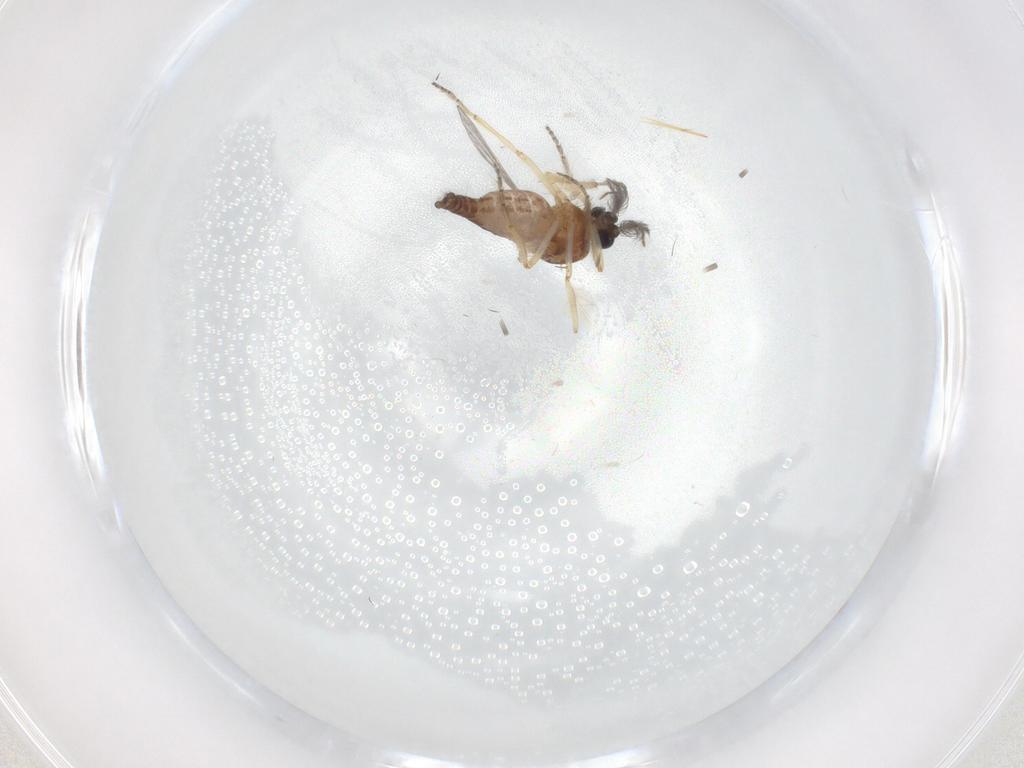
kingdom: Animalia
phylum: Arthropoda
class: Insecta
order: Diptera
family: Ceratopogonidae
